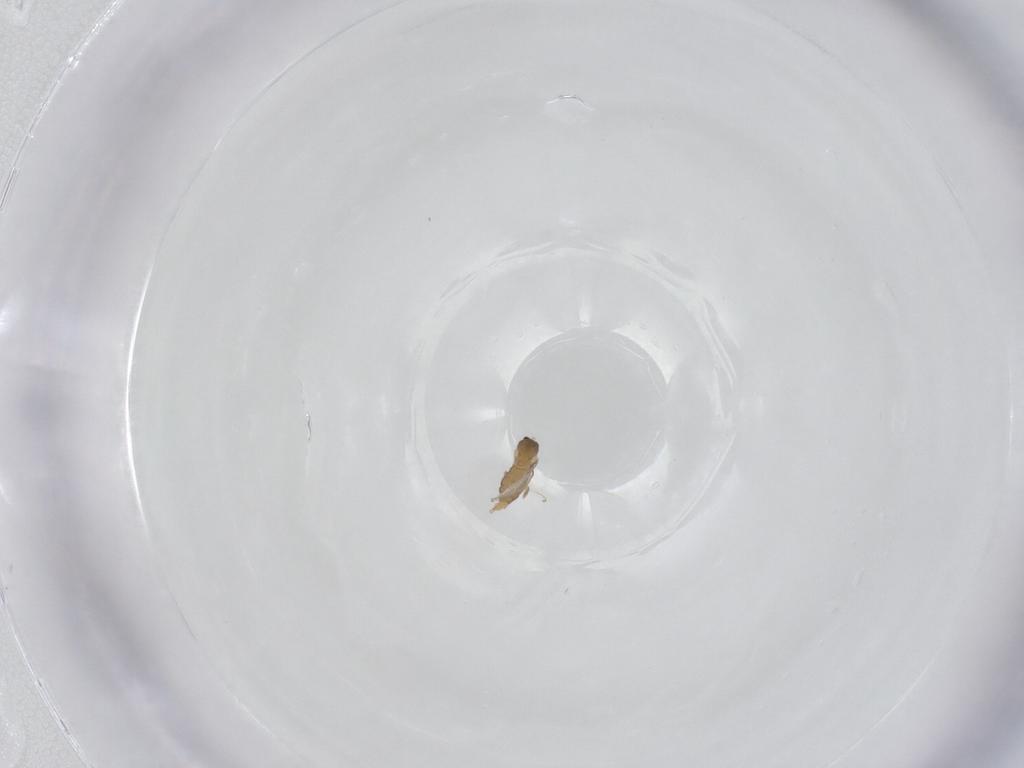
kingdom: Animalia
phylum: Arthropoda
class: Insecta
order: Diptera
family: Cecidomyiidae
